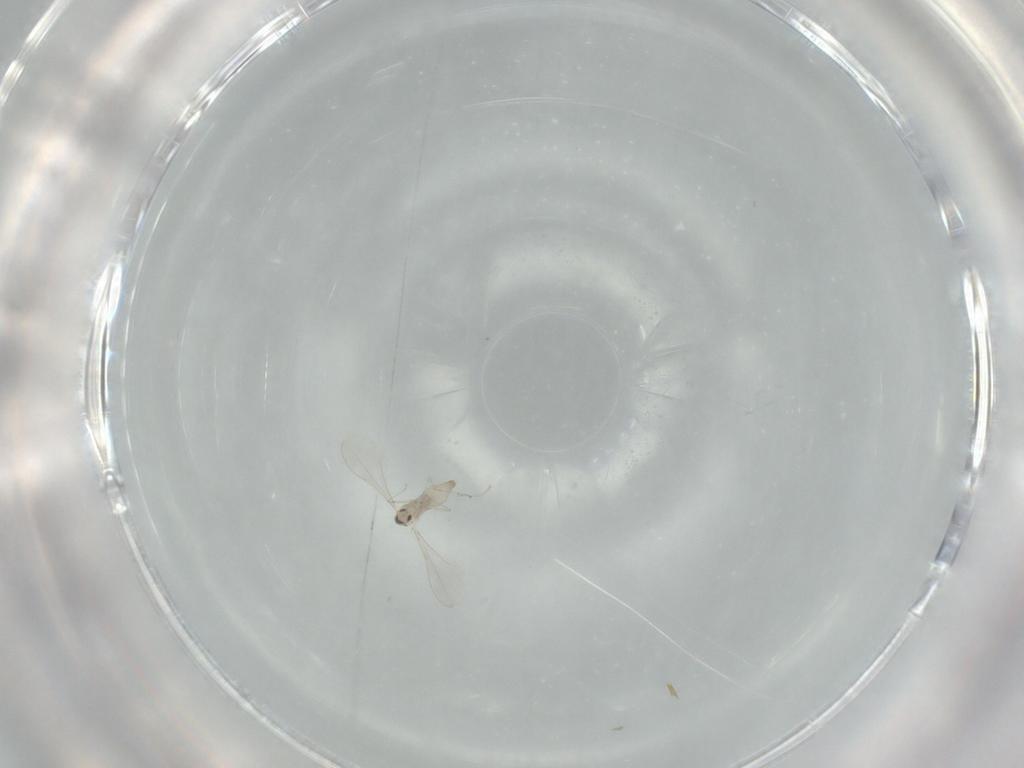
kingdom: Animalia
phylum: Arthropoda
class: Insecta
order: Diptera
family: Cecidomyiidae
